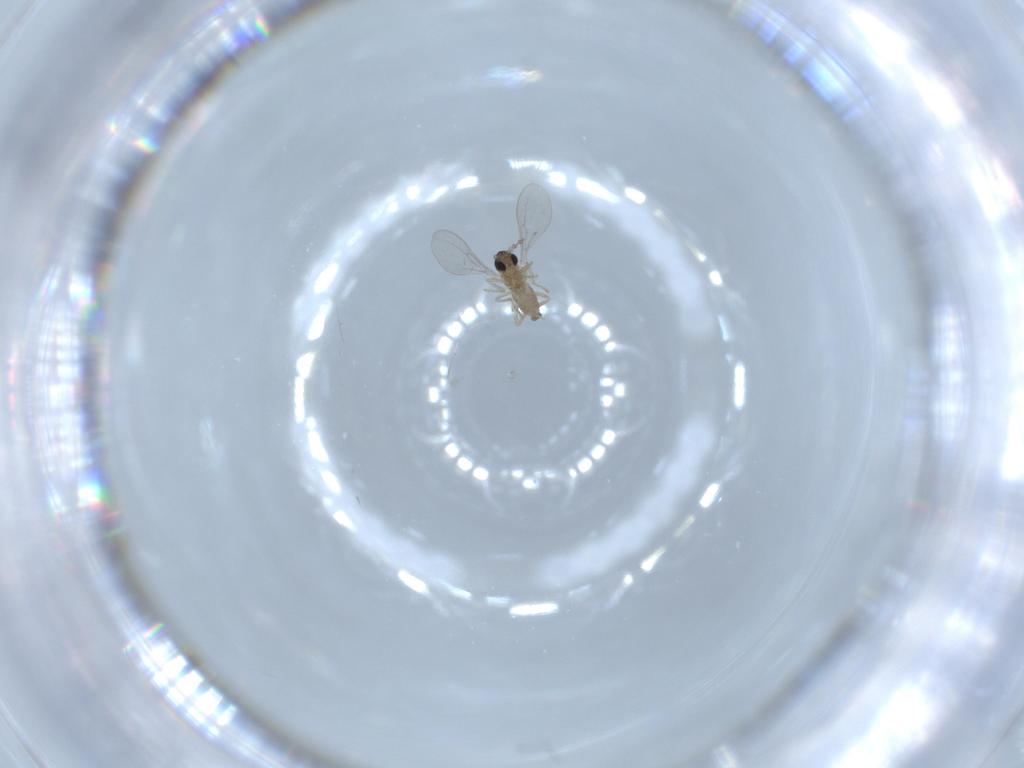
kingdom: Animalia
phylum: Arthropoda
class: Insecta
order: Diptera
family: Cecidomyiidae
